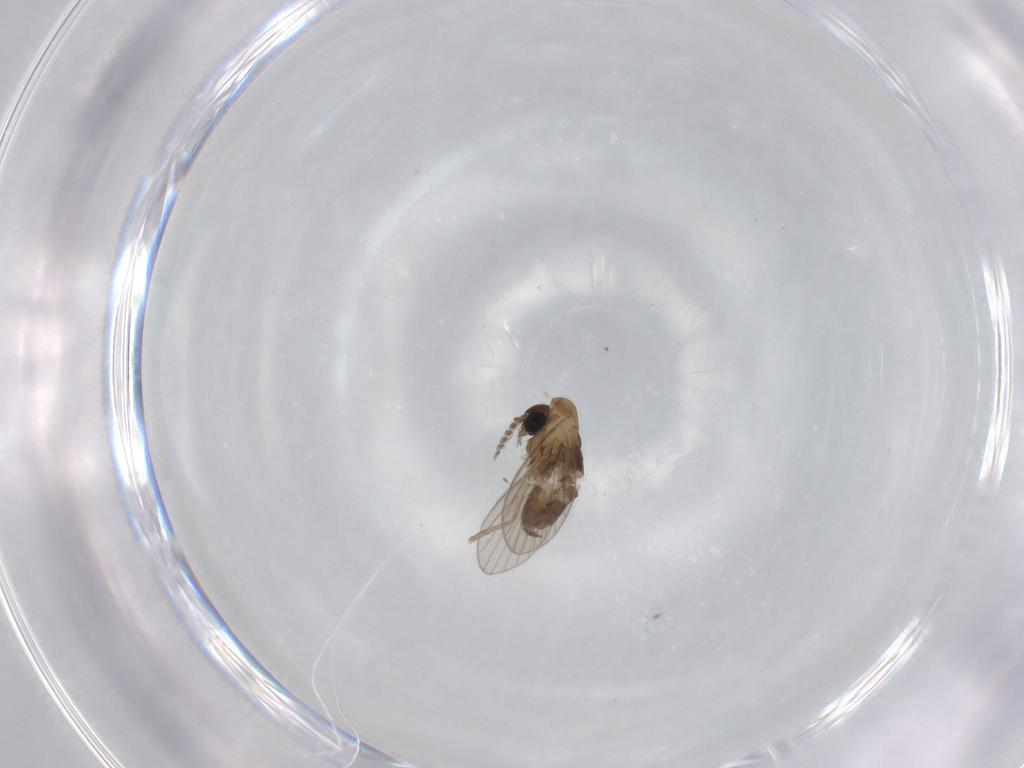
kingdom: Animalia
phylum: Arthropoda
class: Insecta
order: Diptera
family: Psychodidae
